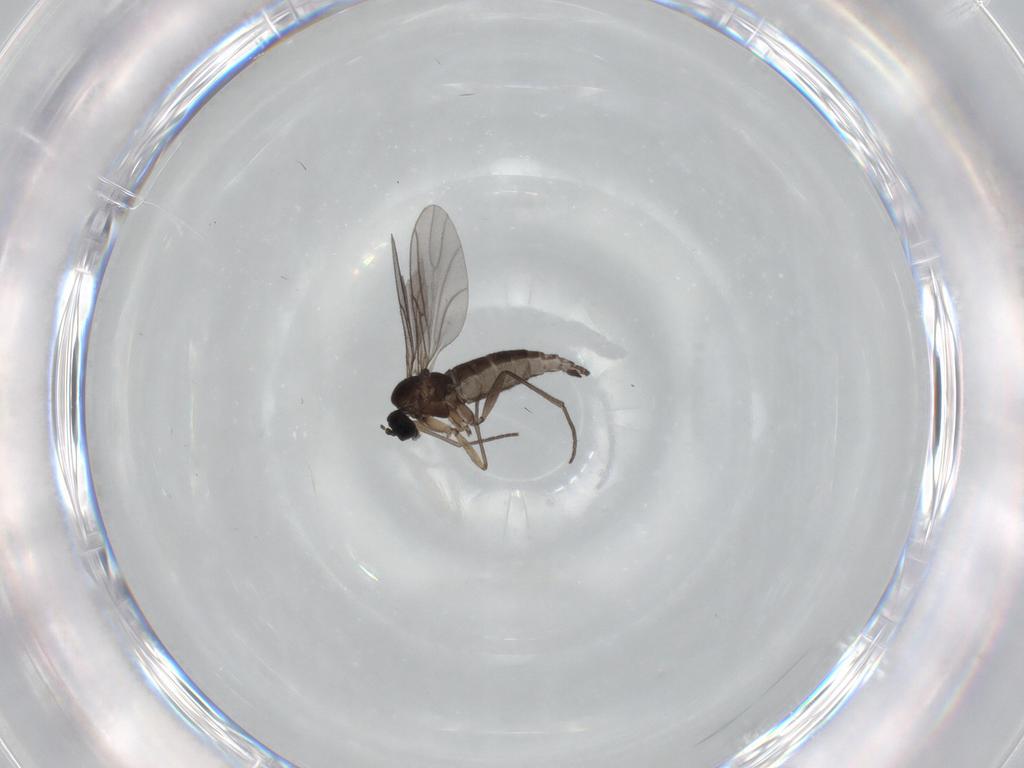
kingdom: Animalia
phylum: Arthropoda
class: Insecta
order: Diptera
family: Sciaridae
